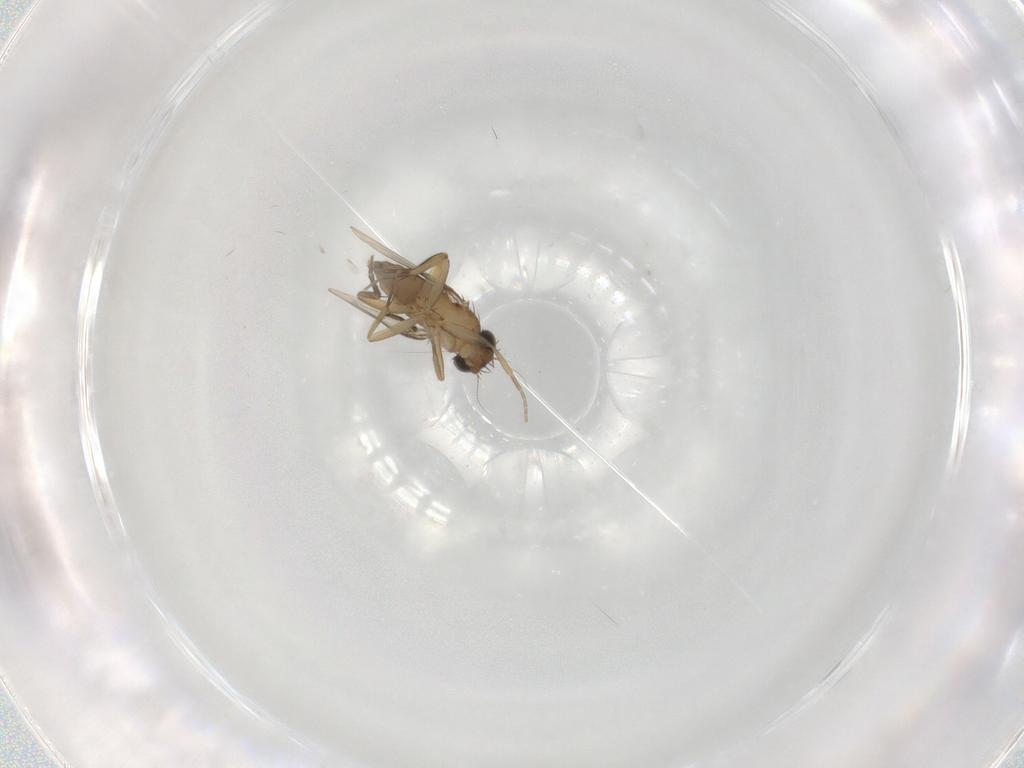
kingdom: Animalia
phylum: Arthropoda
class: Insecta
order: Diptera
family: Phoridae
